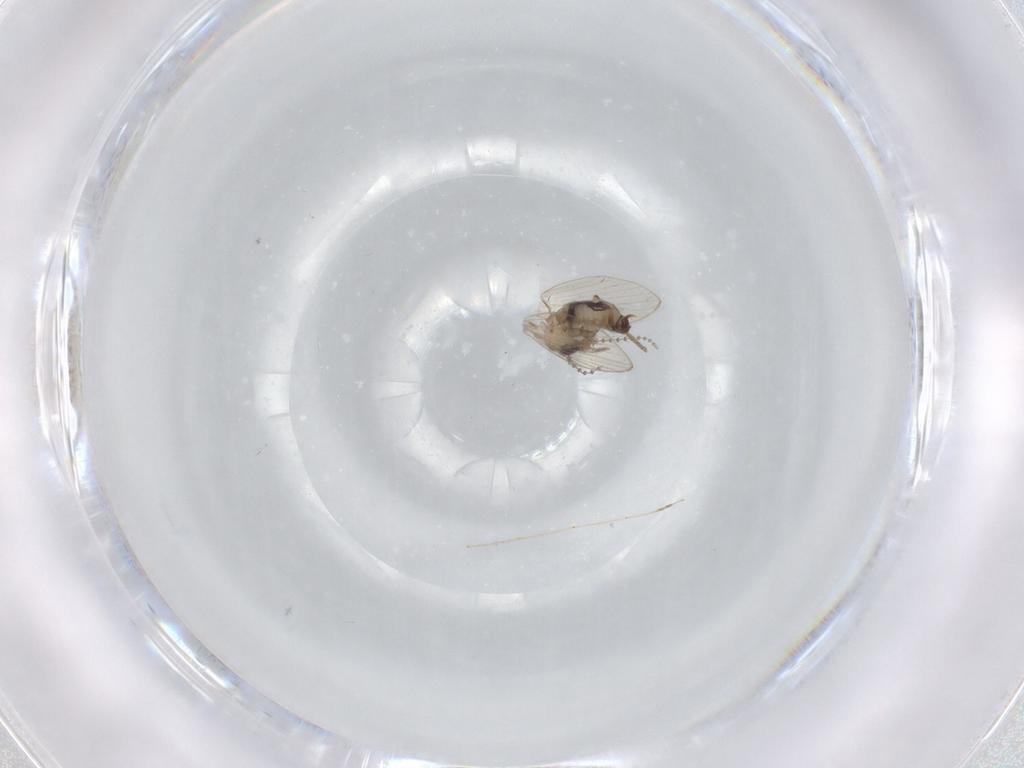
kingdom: Animalia
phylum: Arthropoda
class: Insecta
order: Diptera
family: Psychodidae
